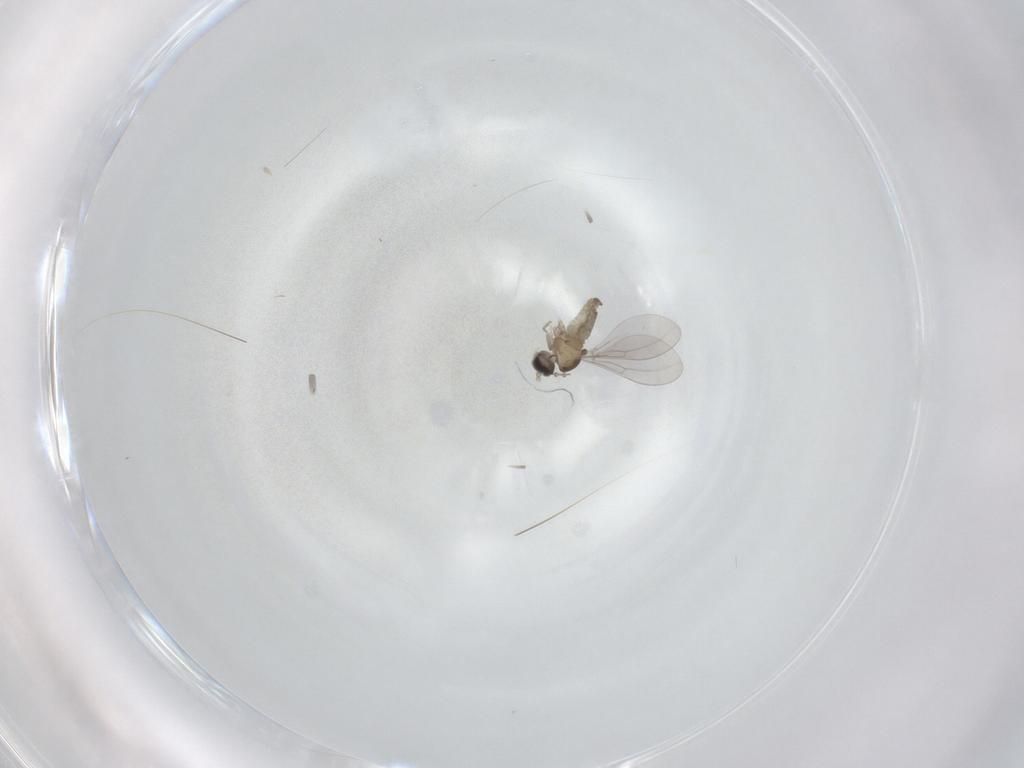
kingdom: Animalia
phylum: Arthropoda
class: Insecta
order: Diptera
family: Cecidomyiidae
